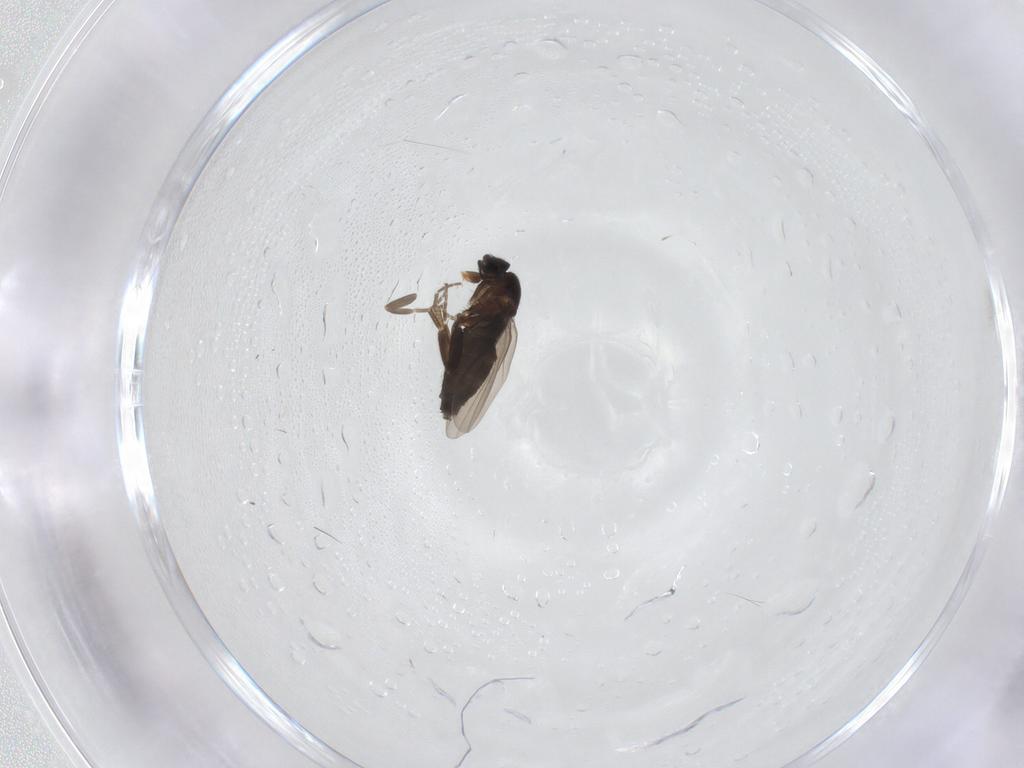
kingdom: Animalia
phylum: Arthropoda
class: Insecta
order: Diptera
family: Phoridae
